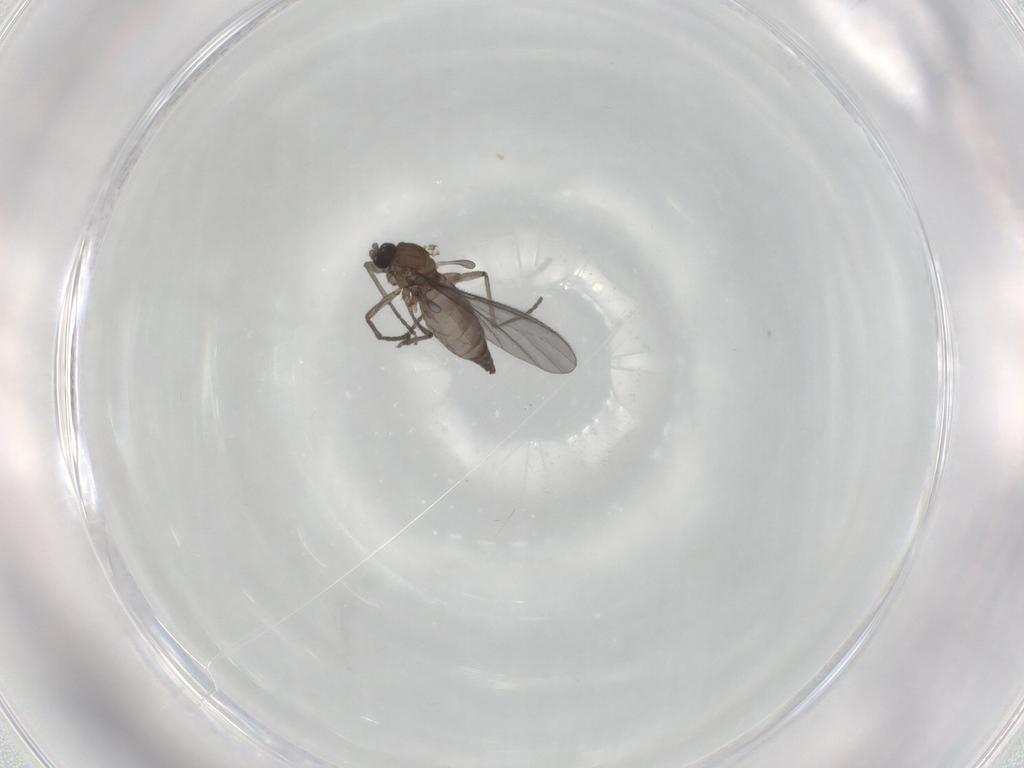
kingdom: Animalia
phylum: Arthropoda
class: Insecta
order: Diptera
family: Sciaridae
